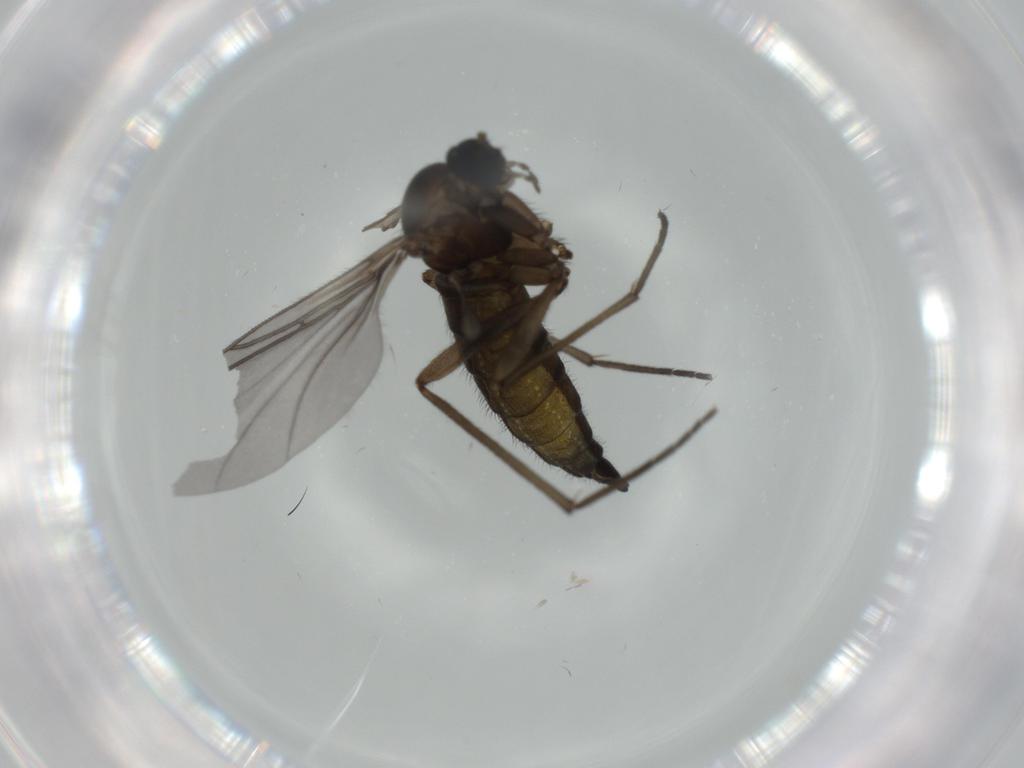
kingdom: Animalia
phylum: Arthropoda
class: Insecta
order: Diptera
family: Sciaridae
